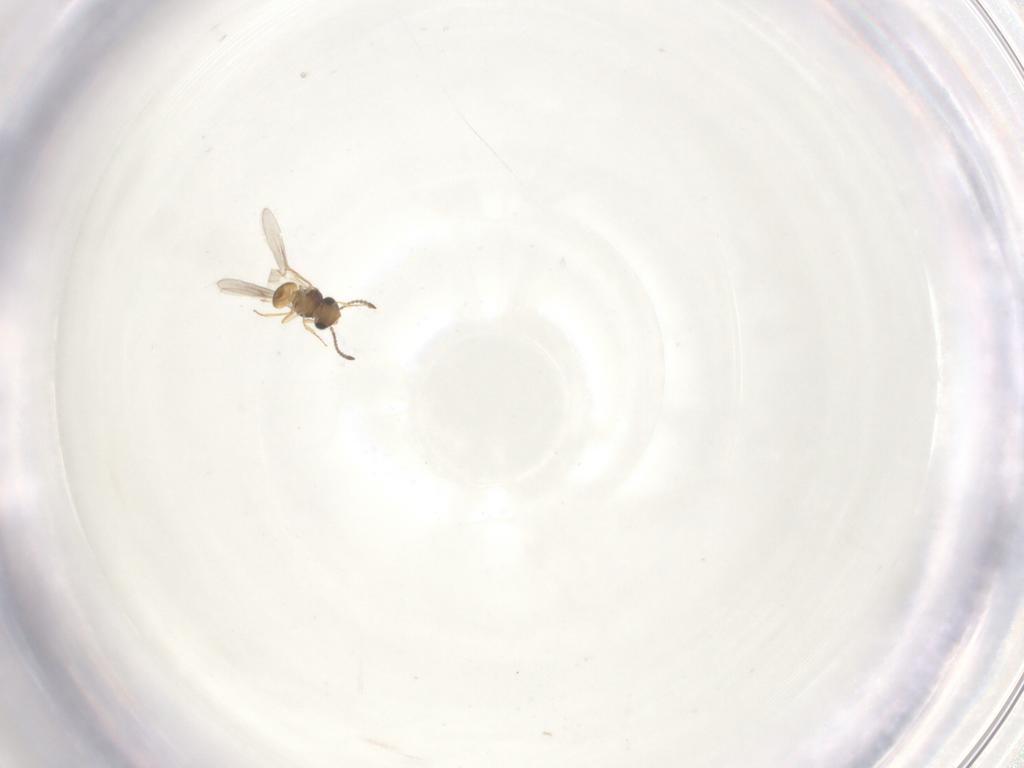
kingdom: Animalia
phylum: Arthropoda
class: Insecta
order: Hymenoptera
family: Scelionidae
